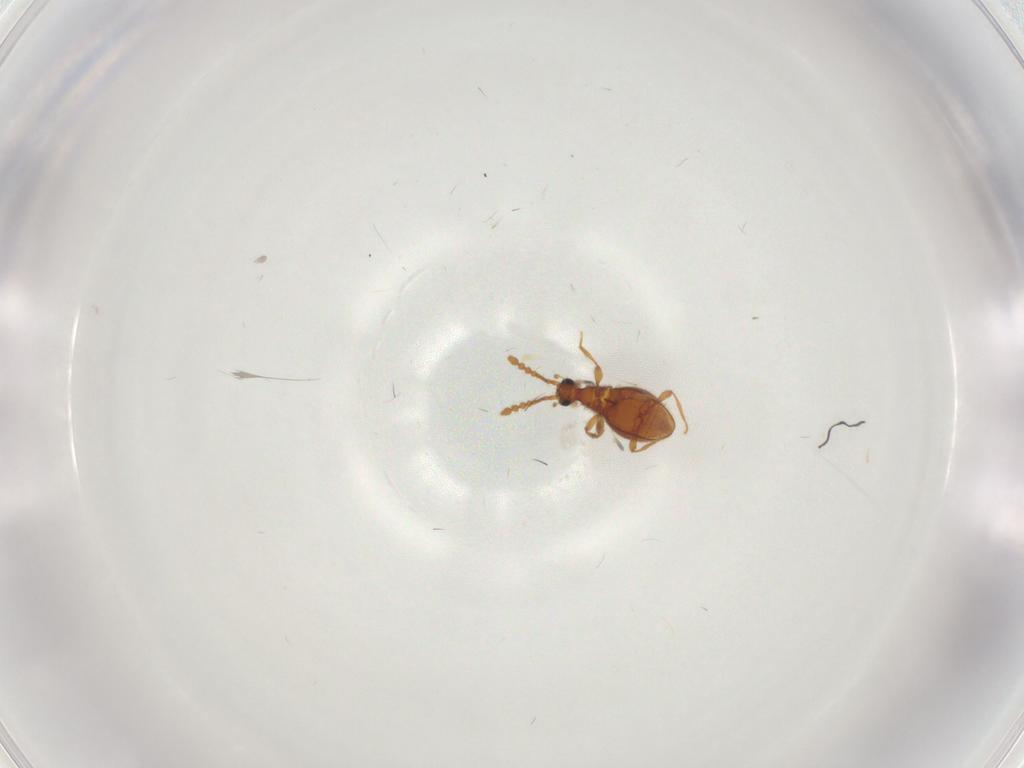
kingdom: Animalia
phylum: Arthropoda
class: Insecta
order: Coleoptera
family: Staphylinidae
